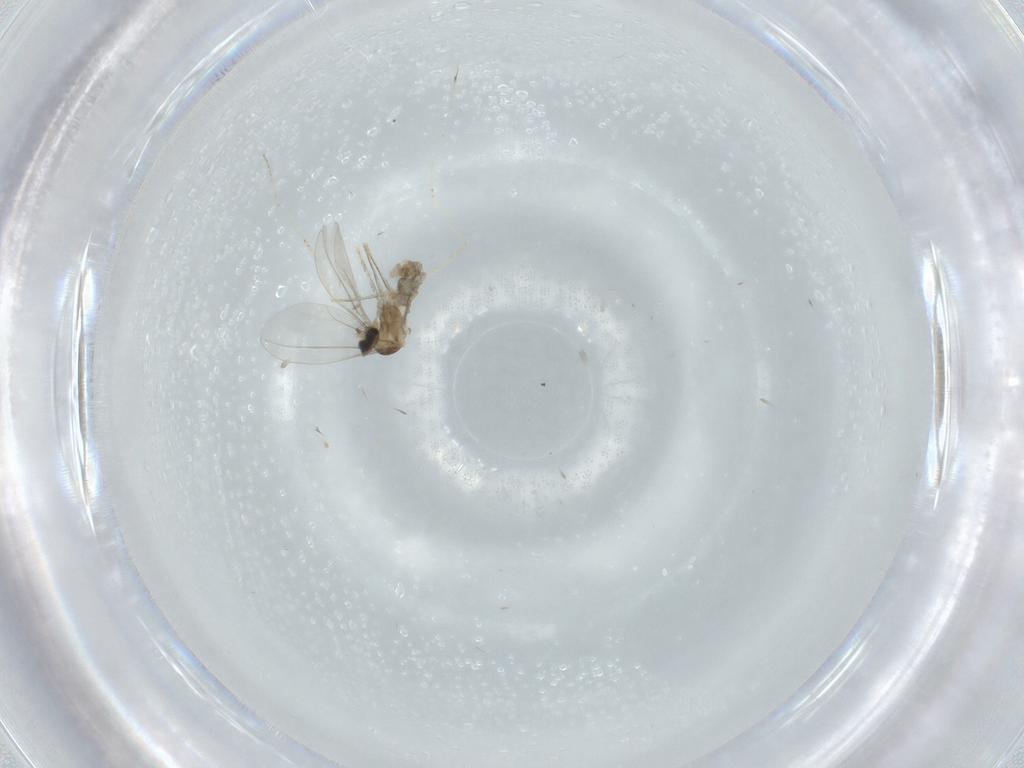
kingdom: Animalia
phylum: Arthropoda
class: Insecta
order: Diptera
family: Cecidomyiidae
